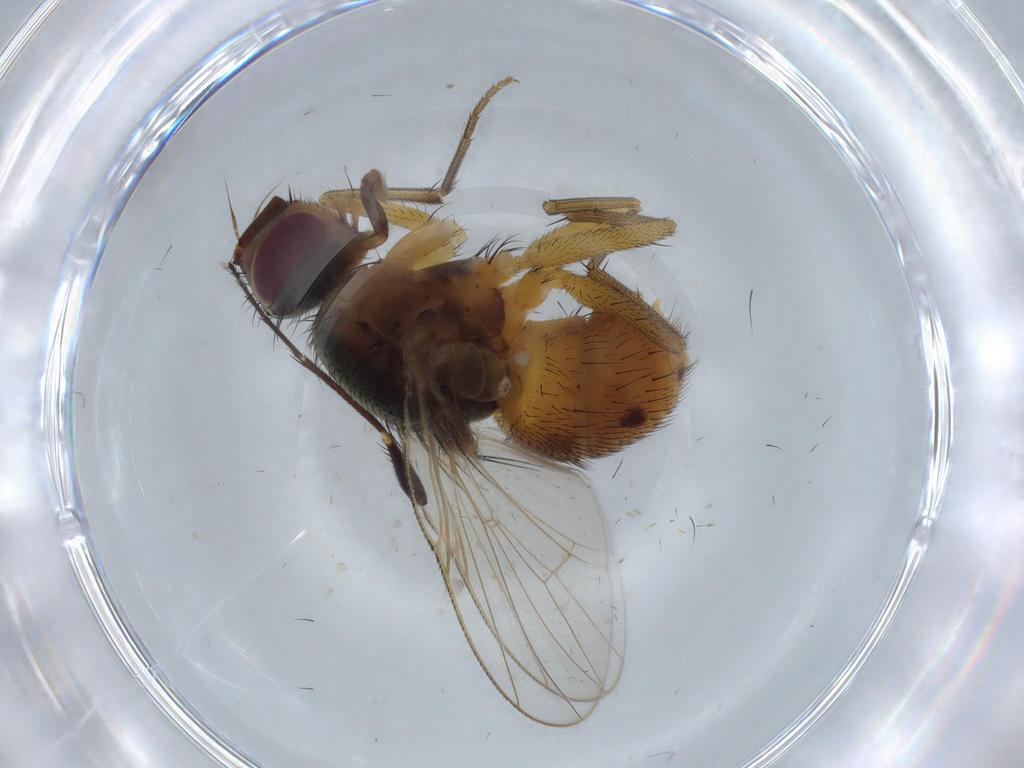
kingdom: Animalia
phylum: Arthropoda
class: Insecta
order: Diptera
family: Dolichopodidae
